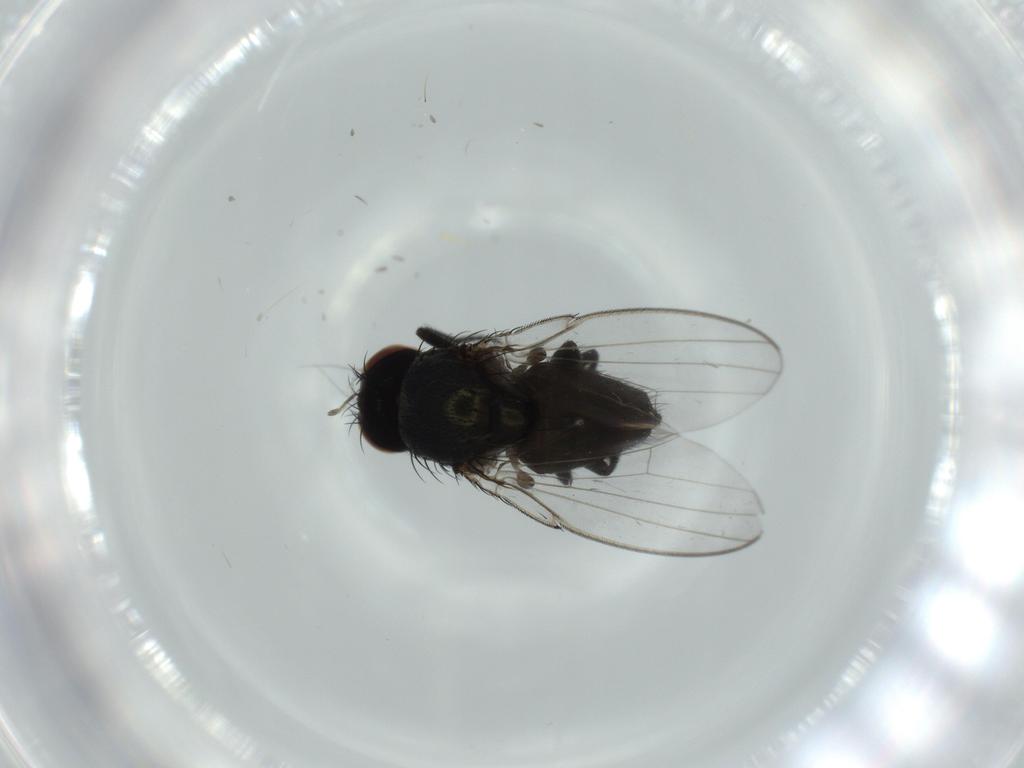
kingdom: Animalia
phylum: Arthropoda
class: Insecta
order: Diptera
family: Milichiidae
